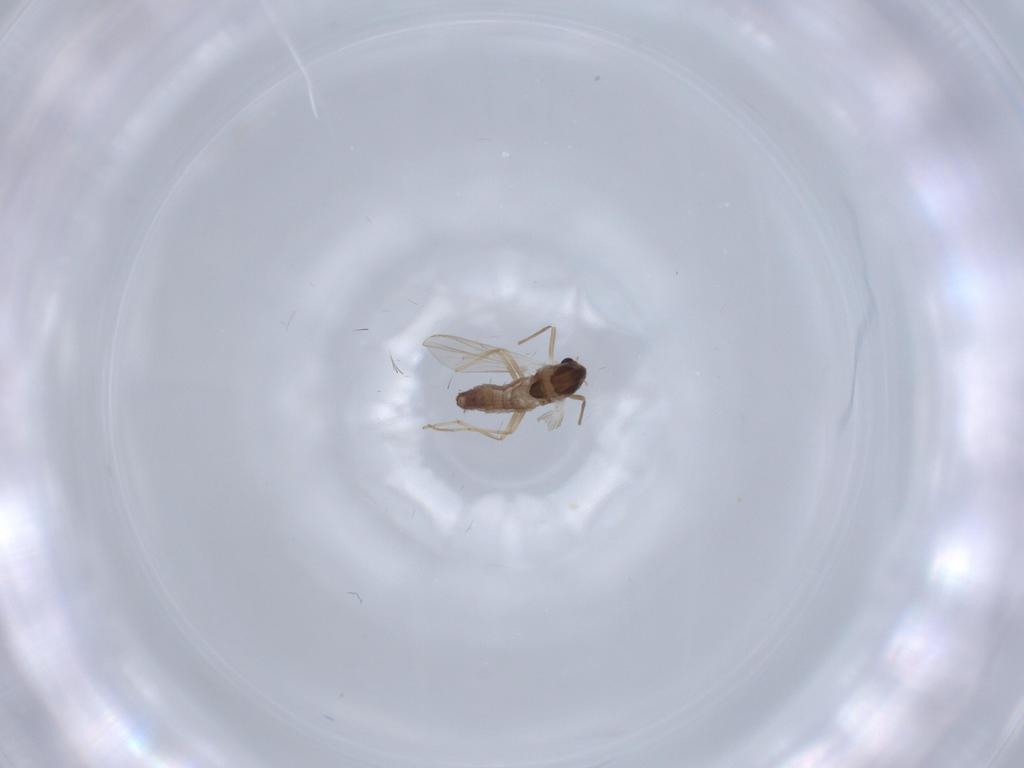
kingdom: Animalia
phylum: Arthropoda
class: Insecta
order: Diptera
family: Chironomidae
